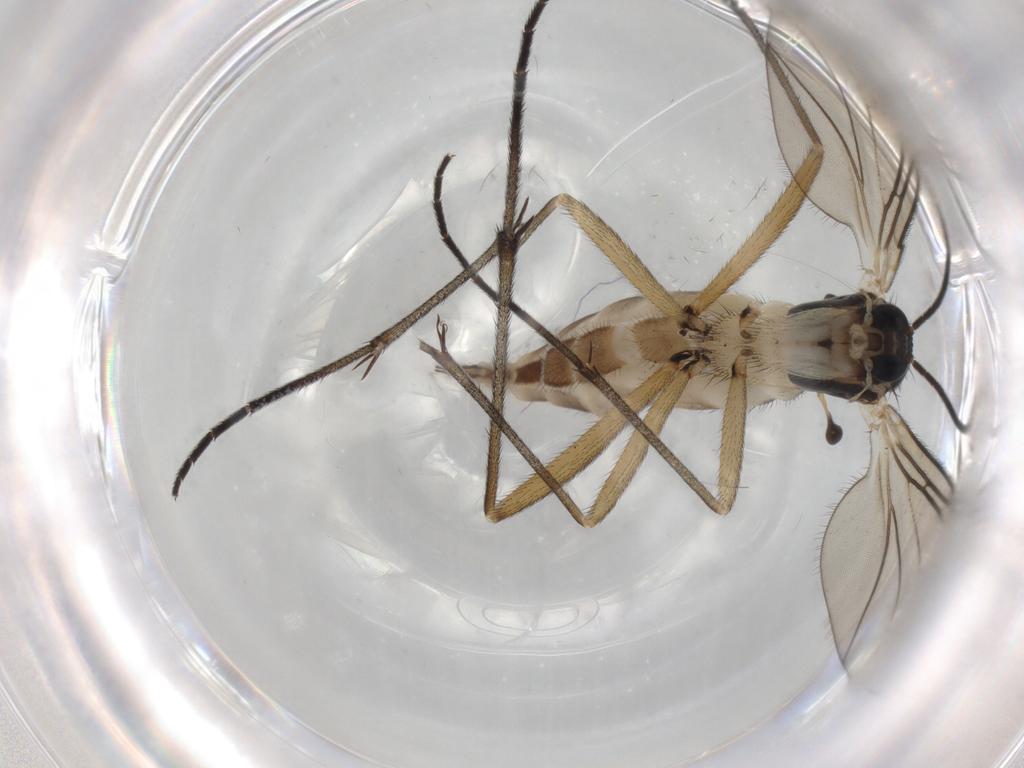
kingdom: Animalia
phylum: Arthropoda
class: Insecta
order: Diptera
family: Sciaridae
